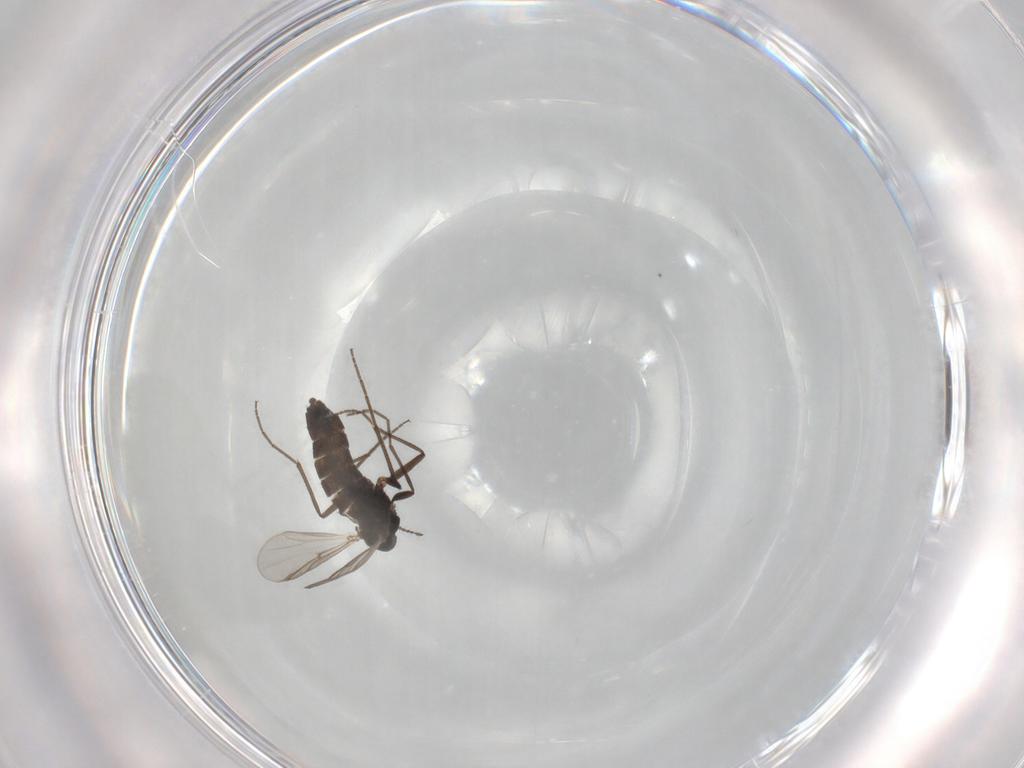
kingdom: Animalia
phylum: Arthropoda
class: Insecta
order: Diptera
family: Chironomidae
